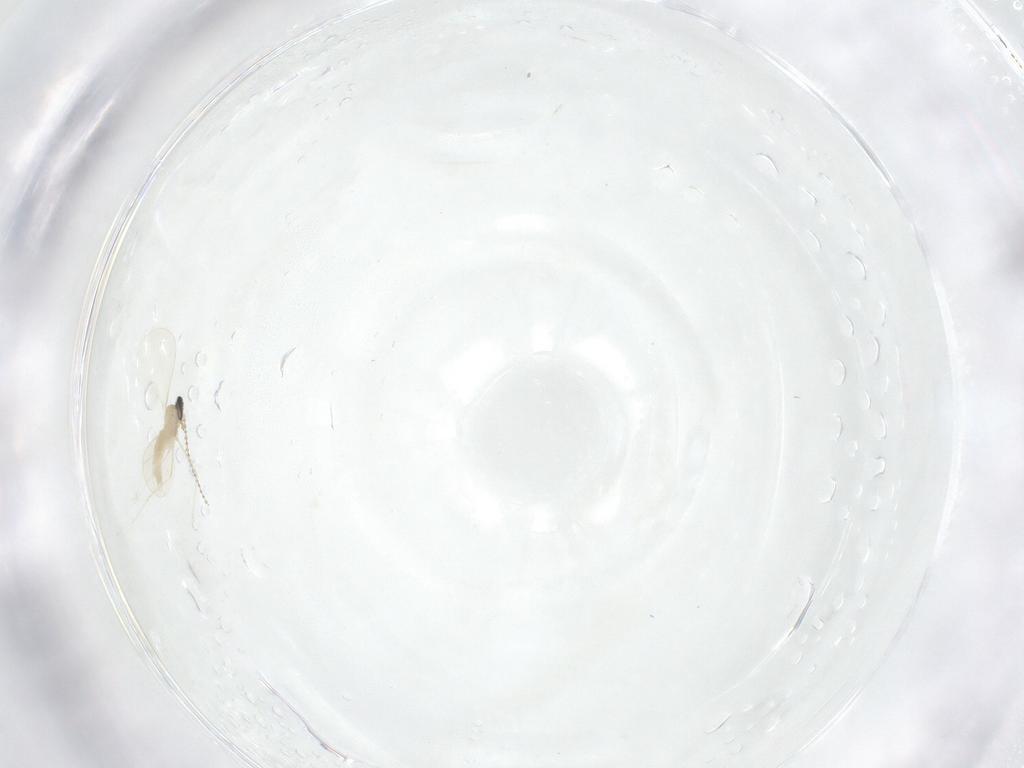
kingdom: Animalia
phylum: Arthropoda
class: Insecta
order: Diptera
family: Cecidomyiidae
